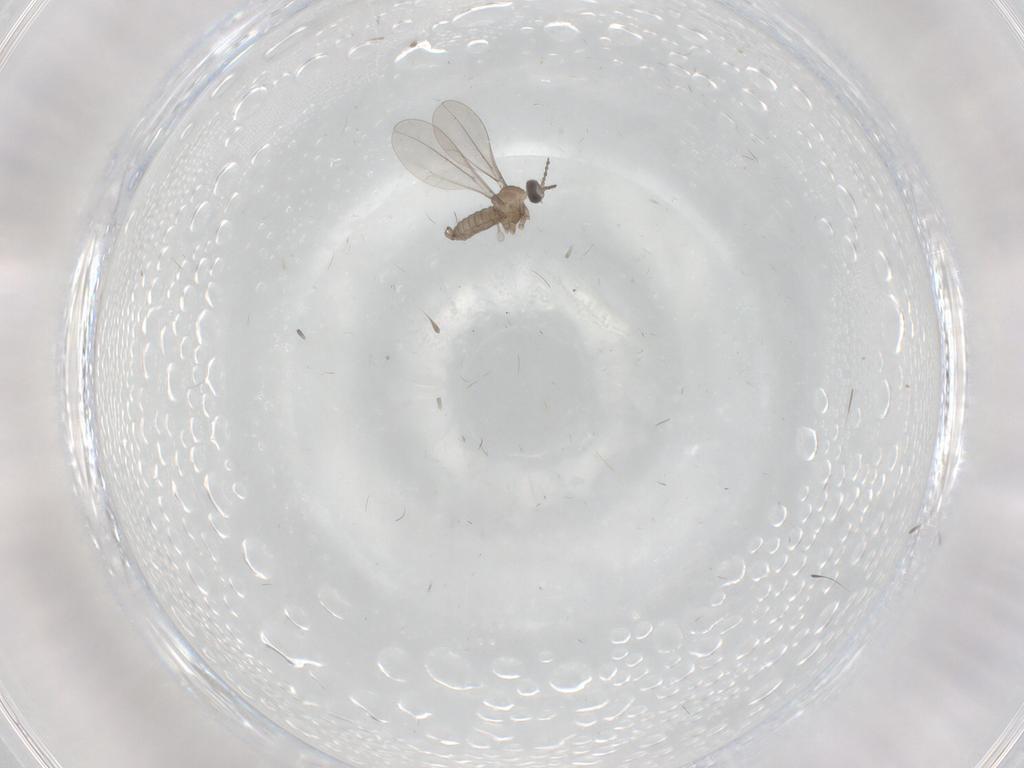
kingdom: Animalia
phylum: Arthropoda
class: Insecta
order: Diptera
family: Cecidomyiidae
